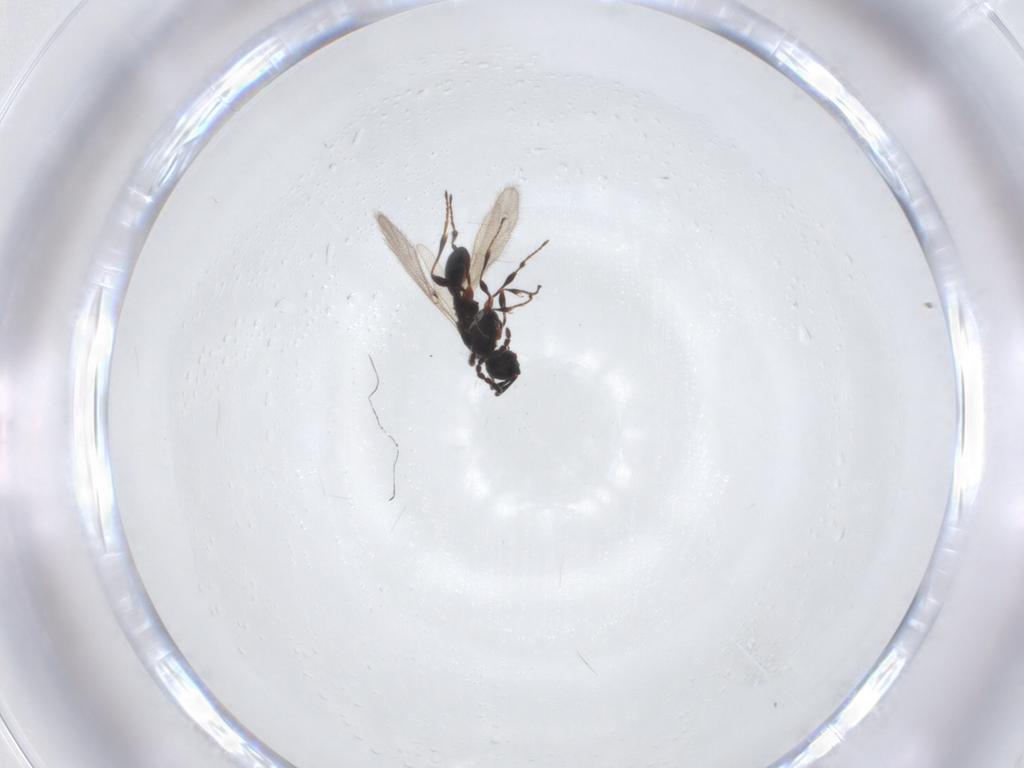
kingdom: Animalia
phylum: Arthropoda
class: Insecta
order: Hymenoptera
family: Diapriidae
